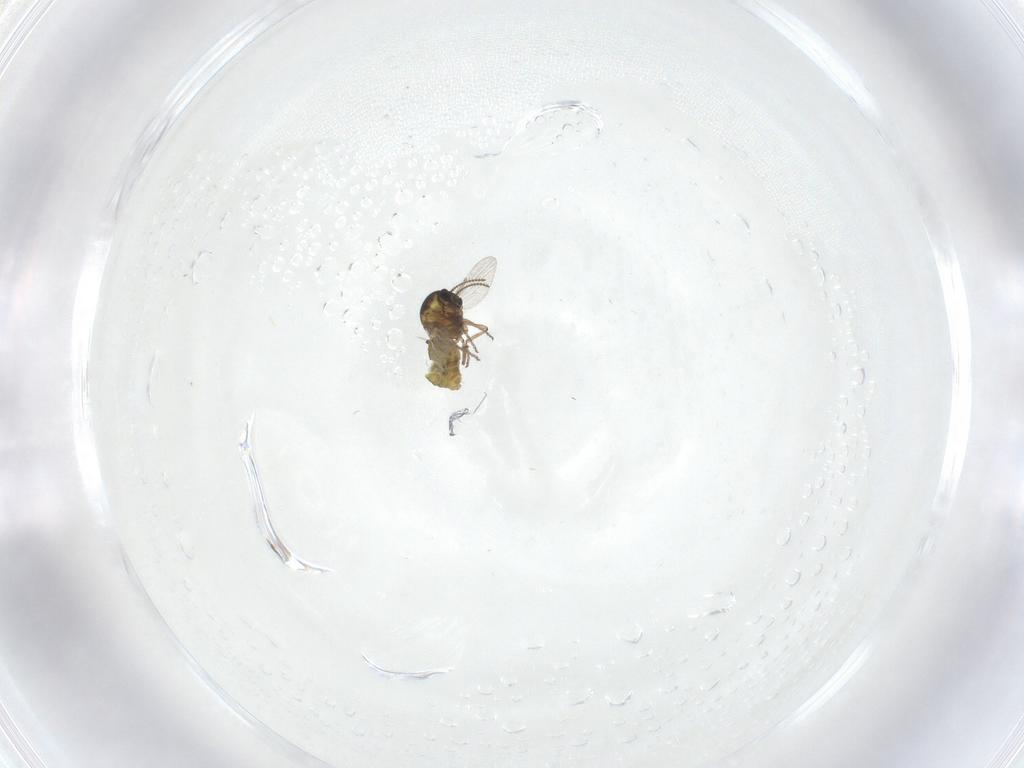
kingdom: Animalia
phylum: Arthropoda
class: Insecta
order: Diptera
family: Ceratopogonidae
